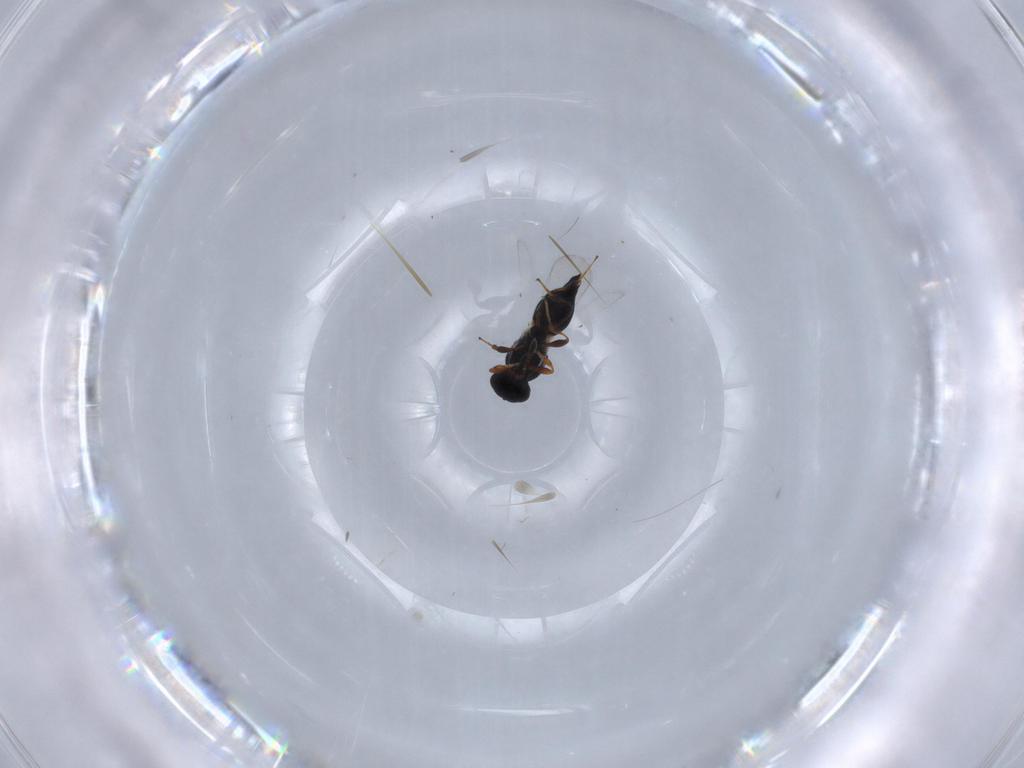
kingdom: Animalia
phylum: Arthropoda
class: Insecta
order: Hymenoptera
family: Platygastridae
